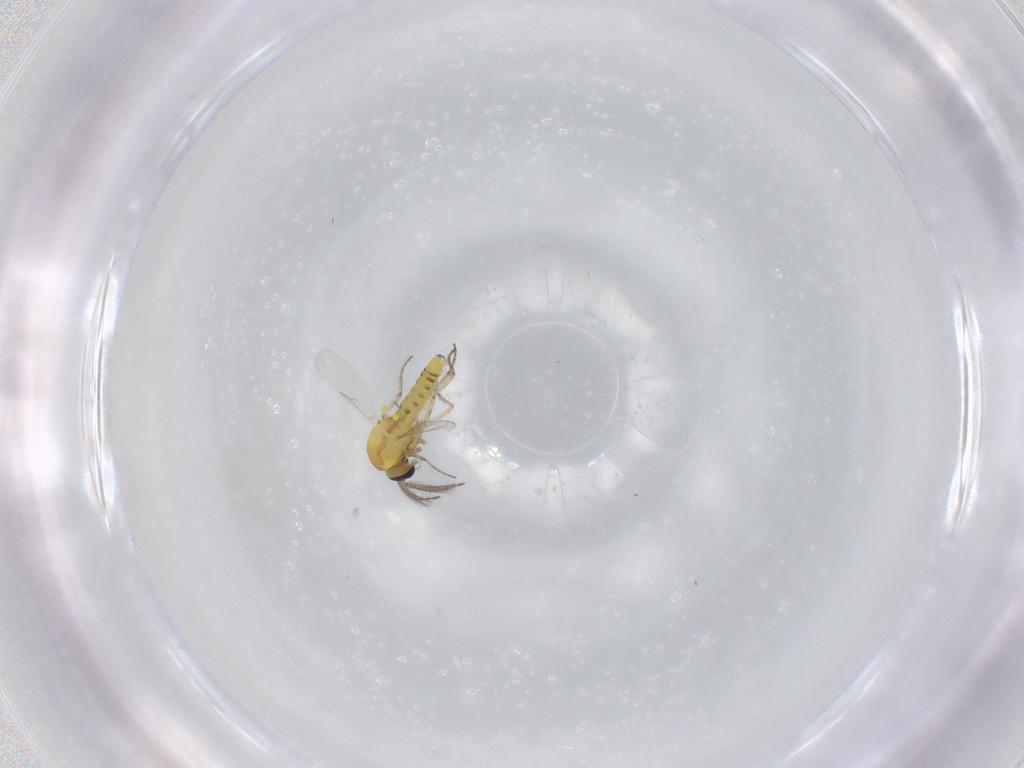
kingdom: Animalia
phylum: Arthropoda
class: Insecta
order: Diptera
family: Ceratopogonidae
